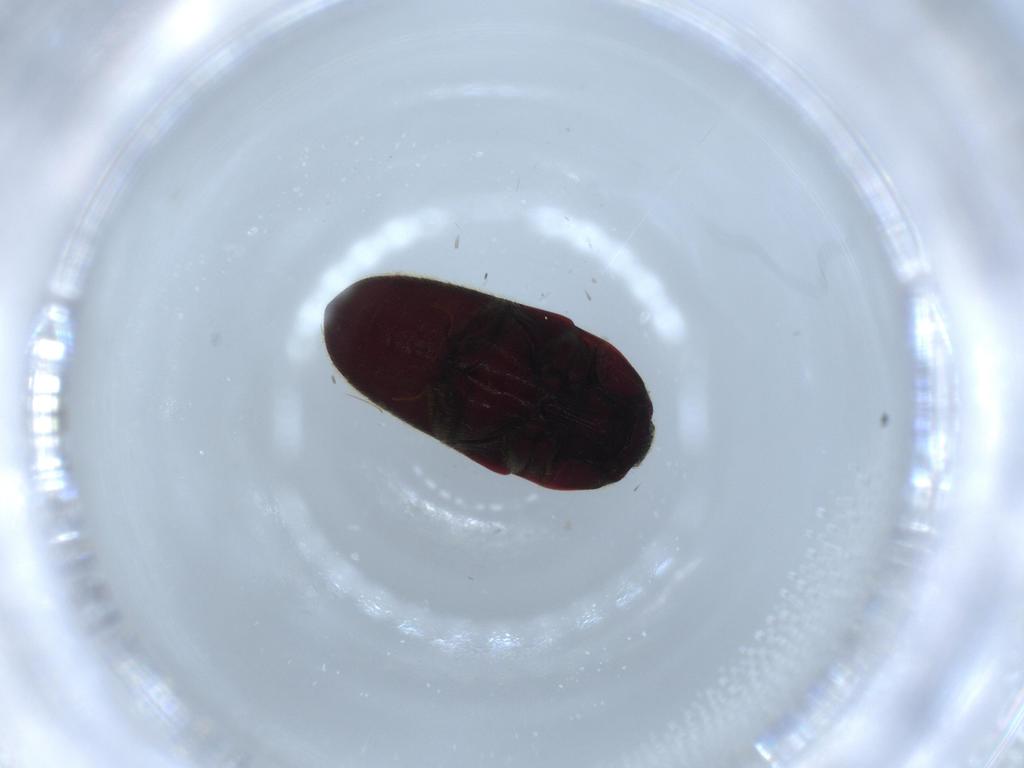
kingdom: Animalia
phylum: Arthropoda
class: Insecta
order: Coleoptera
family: Throscidae
